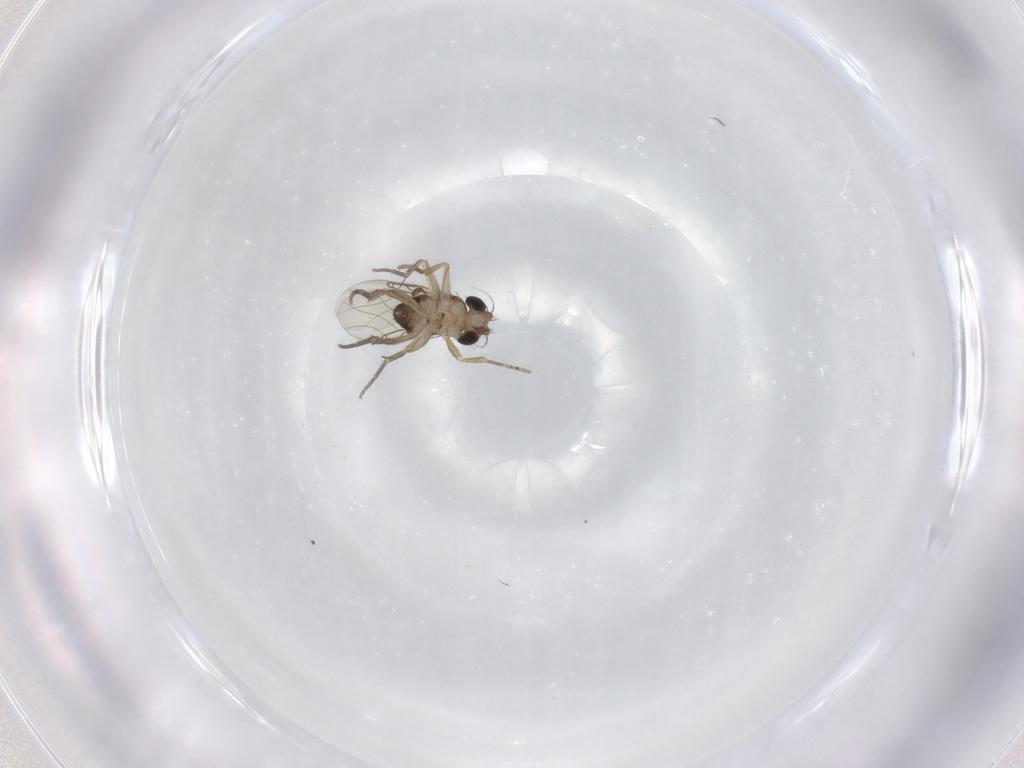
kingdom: Animalia
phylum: Arthropoda
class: Insecta
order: Diptera
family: Phoridae
